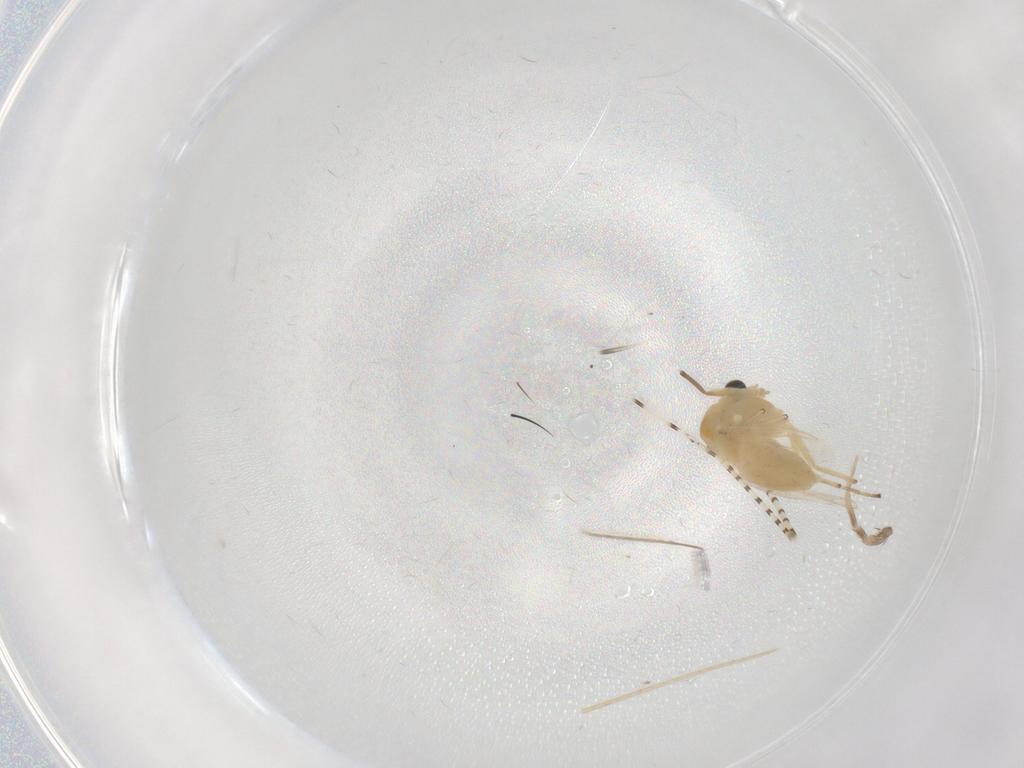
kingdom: Animalia
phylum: Arthropoda
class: Insecta
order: Diptera
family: Chironomidae
